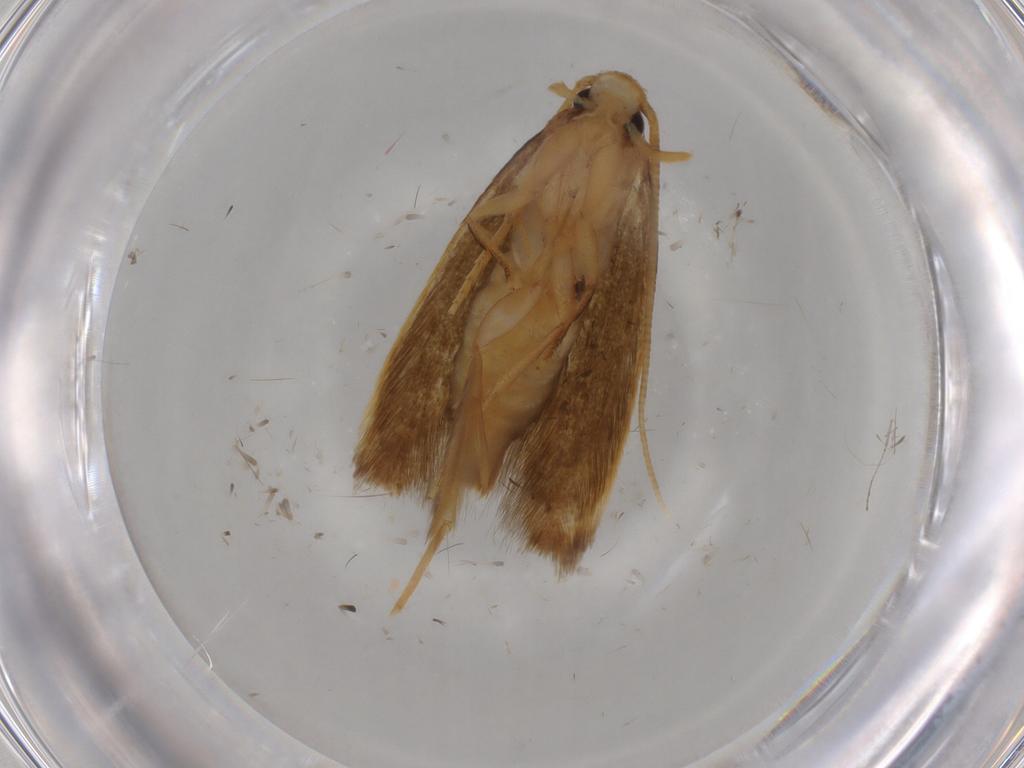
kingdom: Animalia
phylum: Arthropoda
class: Insecta
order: Lepidoptera
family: Tineidae
